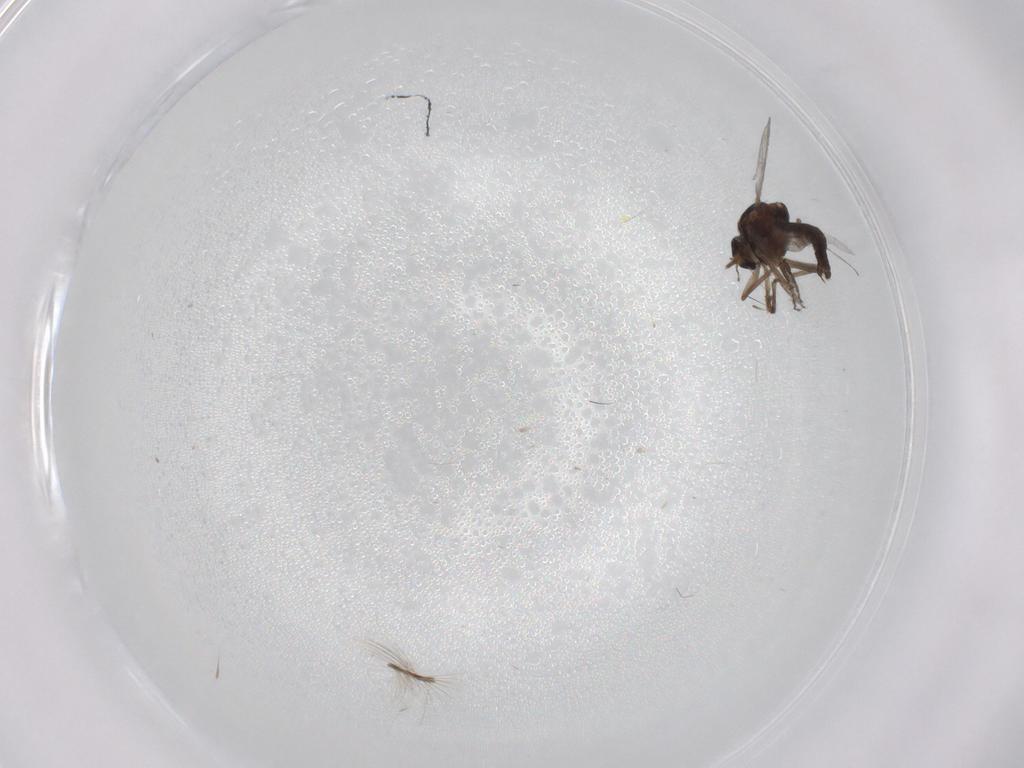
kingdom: Animalia
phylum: Arthropoda
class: Insecta
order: Diptera
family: Ceratopogonidae
